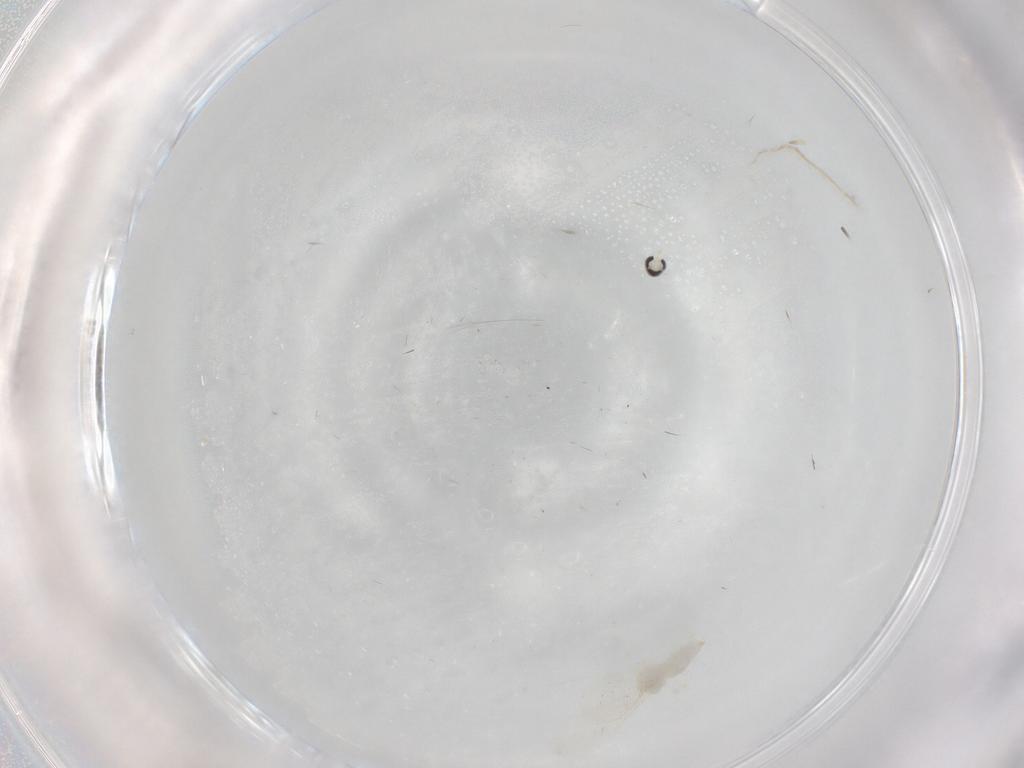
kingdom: Animalia
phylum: Arthropoda
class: Insecta
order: Diptera
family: Cecidomyiidae
